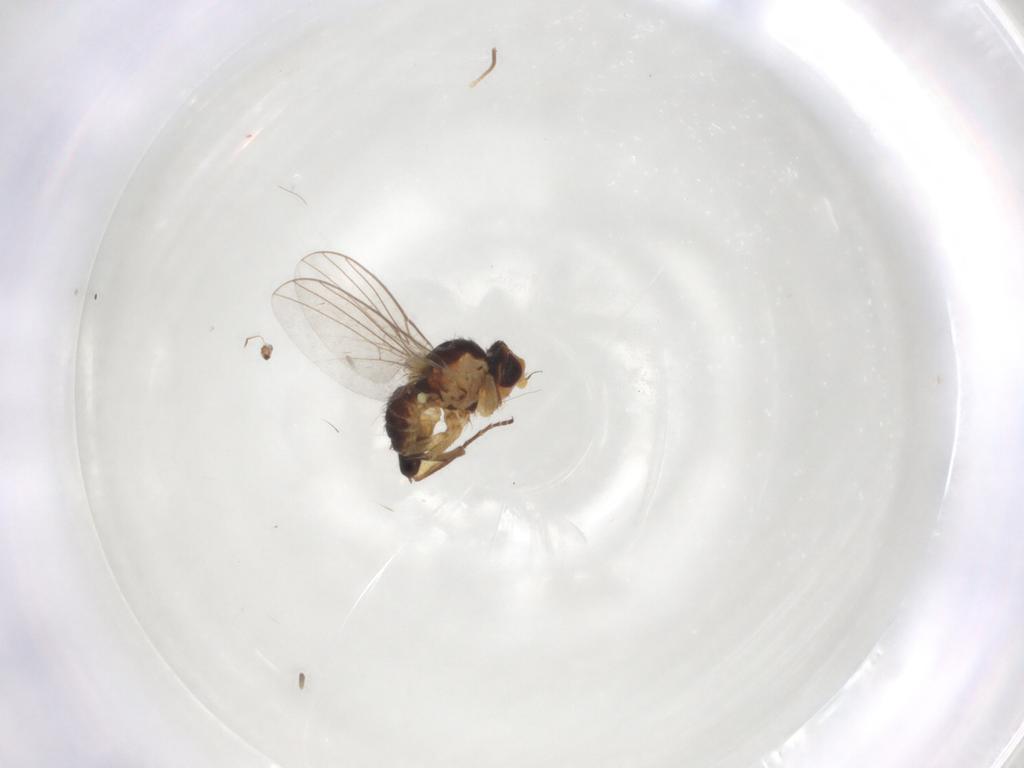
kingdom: Animalia
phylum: Arthropoda
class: Insecta
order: Diptera
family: Agromyzidae
